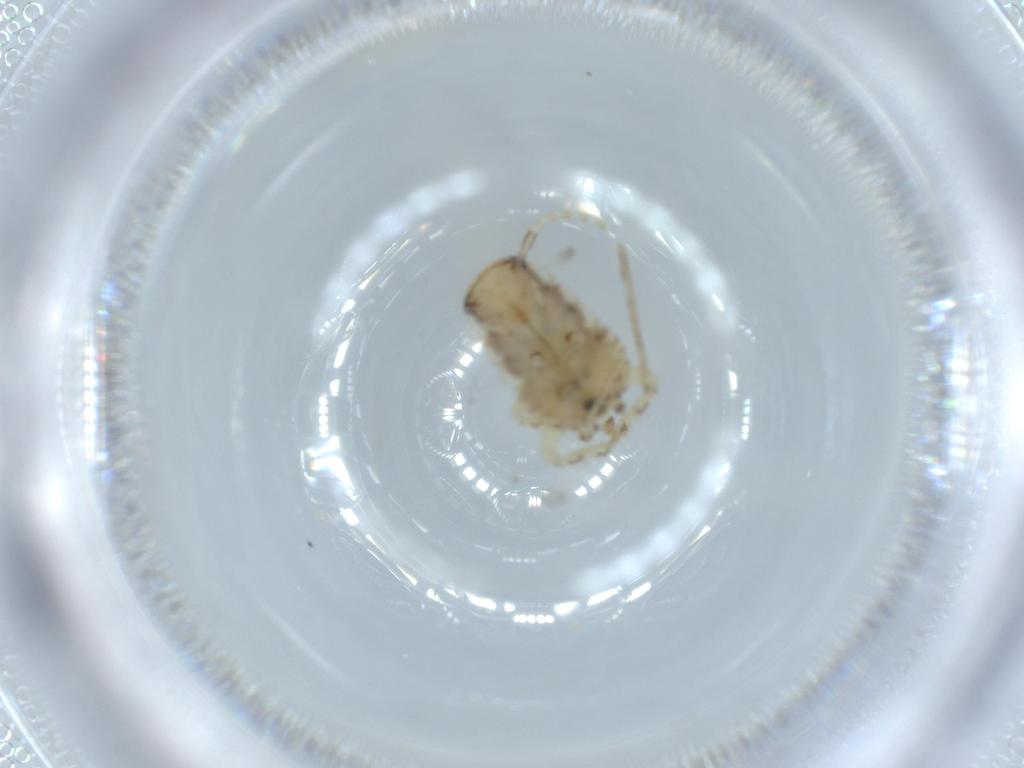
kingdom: Animalia
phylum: Arthropoda
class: Insecta
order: Blattodea
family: Ectobiidae
